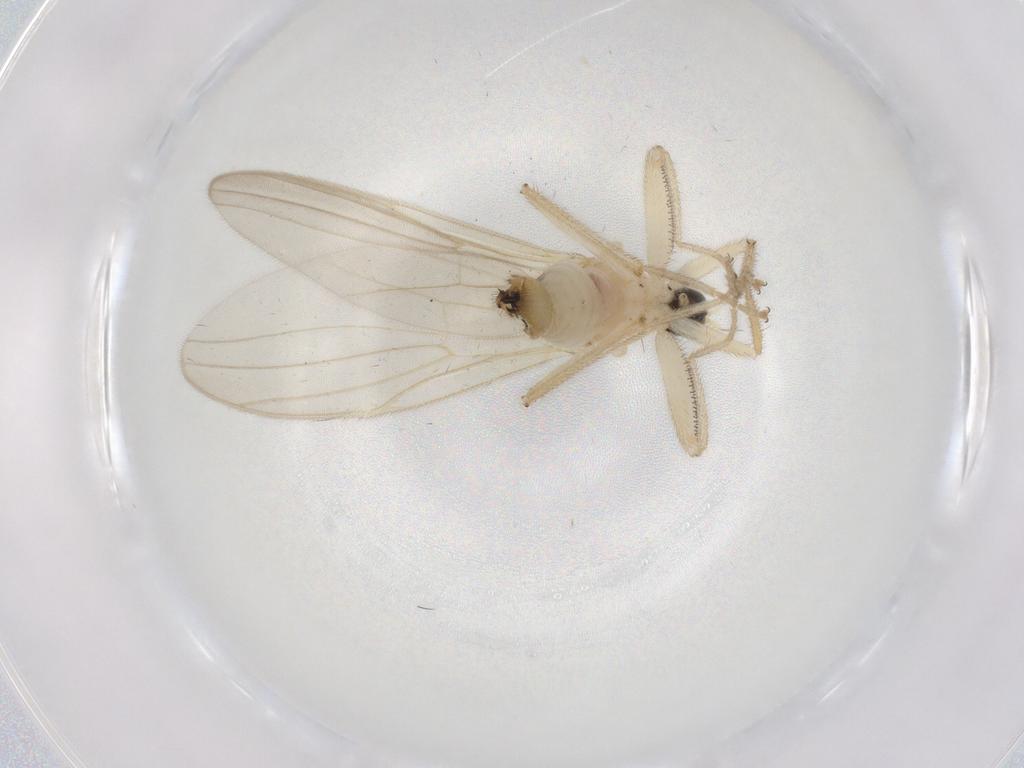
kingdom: Animalia
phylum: Arthropoda
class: Insecta
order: Diptera
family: Hybotidae
